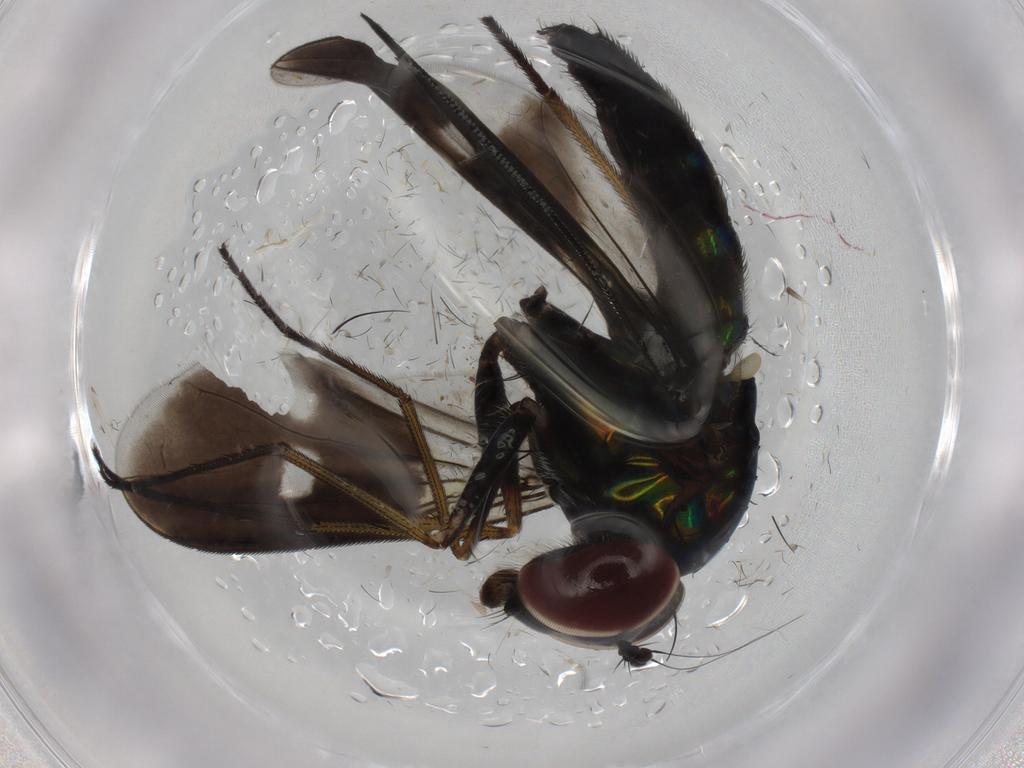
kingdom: Animalia
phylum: Arthropoda
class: Insecta
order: Diptera
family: Dolichopodidae
